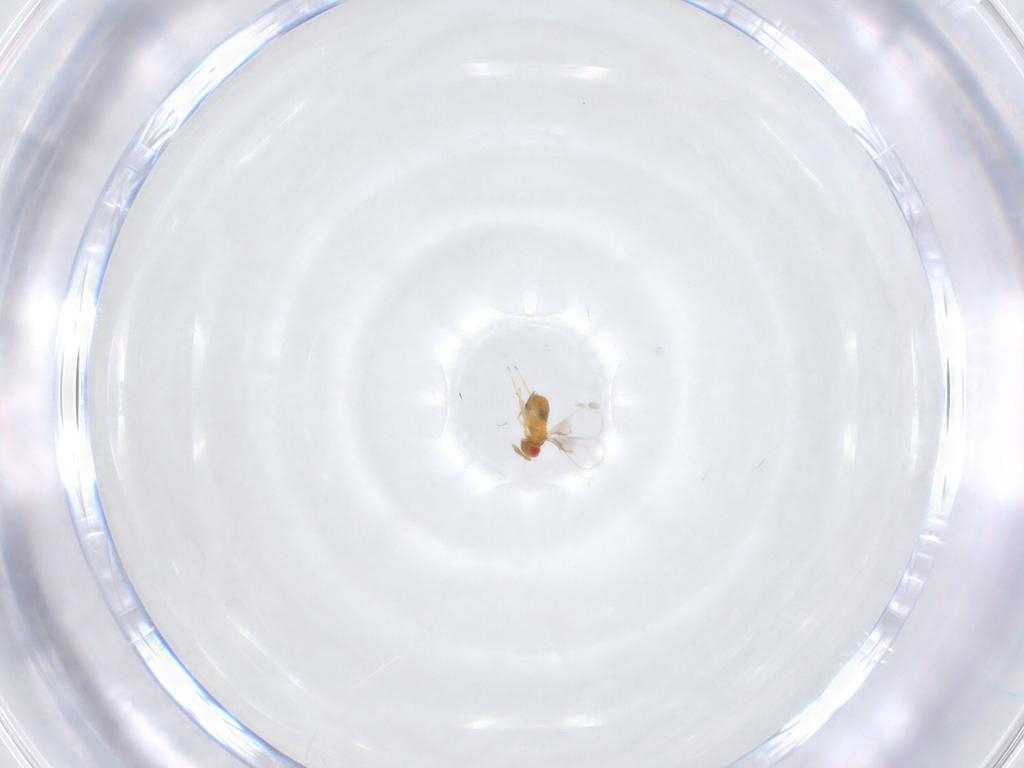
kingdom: Animalia
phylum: Arthropoda
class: Insecta
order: Hymenoptera
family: Trichogrammatidae
